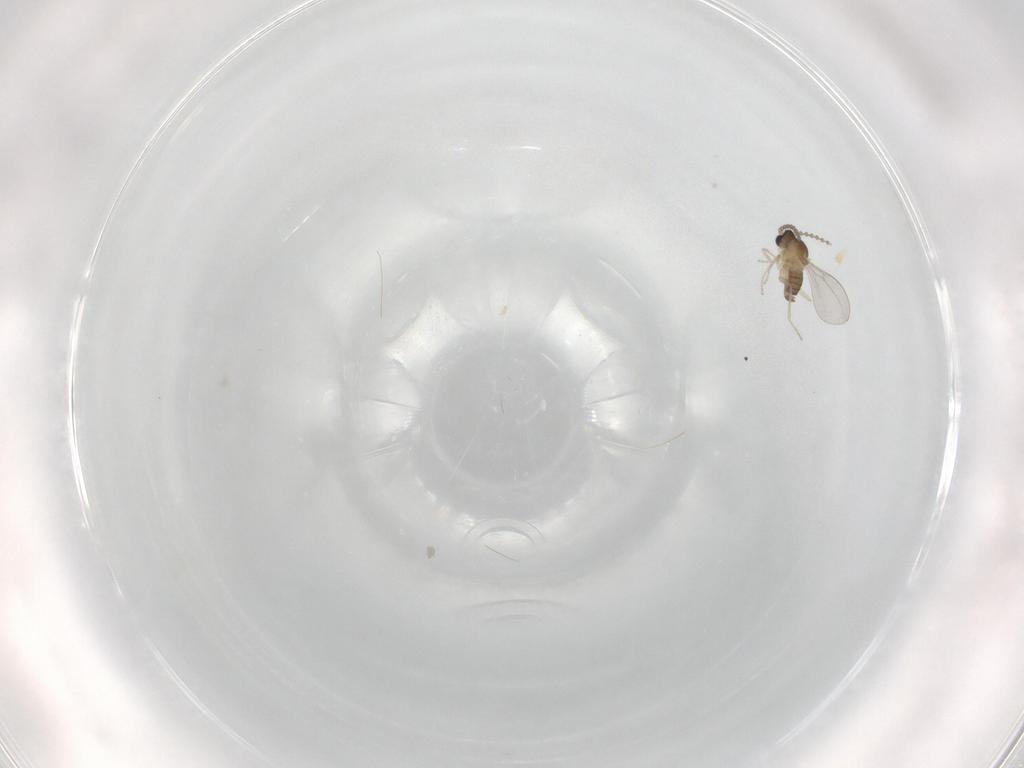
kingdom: Animalia
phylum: Arthropoda
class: Insecta
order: Diptera
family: Cecidomyiidae
